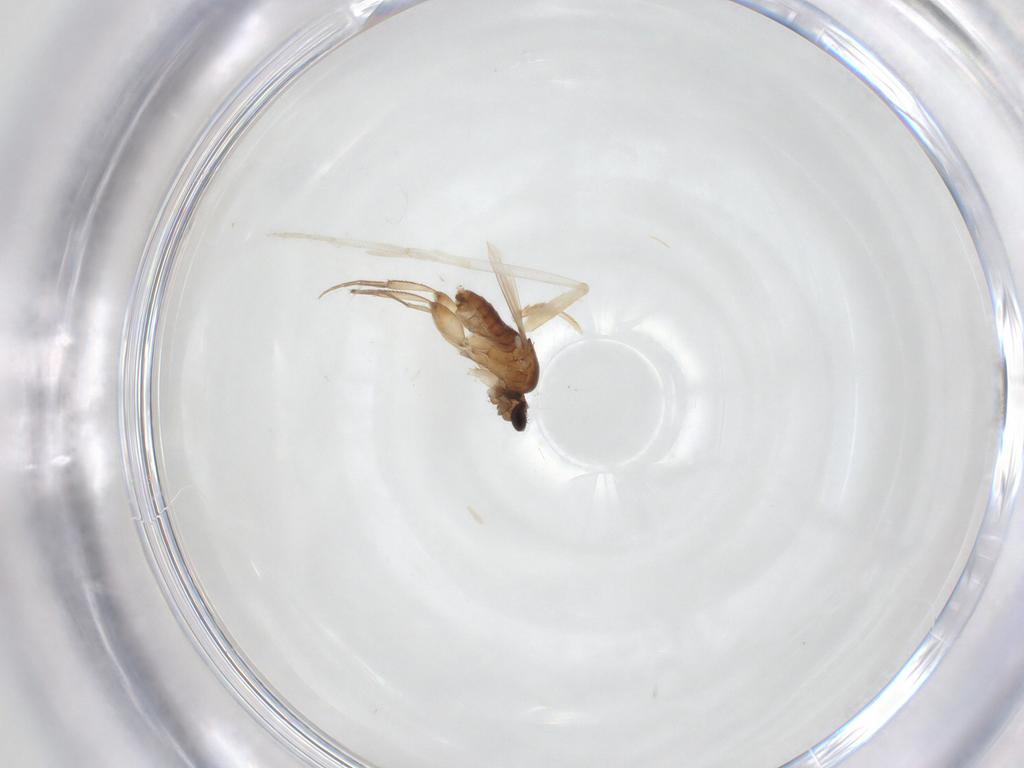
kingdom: Animalia
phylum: Arthropoda
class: Insecta
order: Diptera
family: Phoridae
